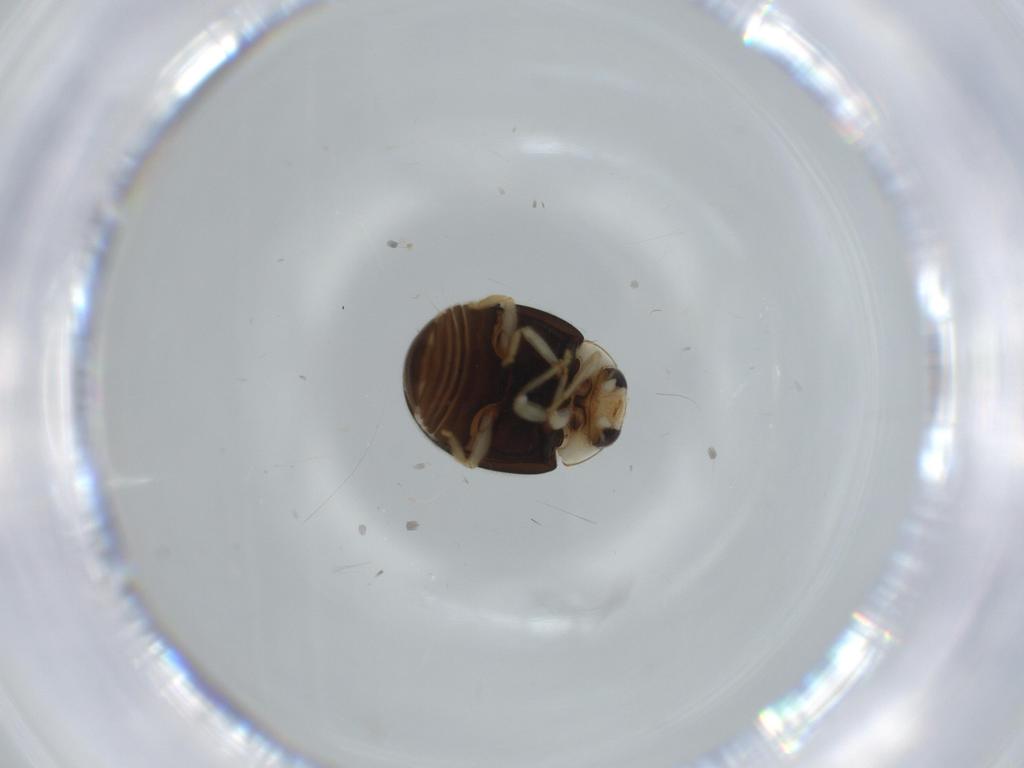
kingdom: Animalia
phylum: Arthropoda
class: Insecta
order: Coleoptera
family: Coccinellidae
